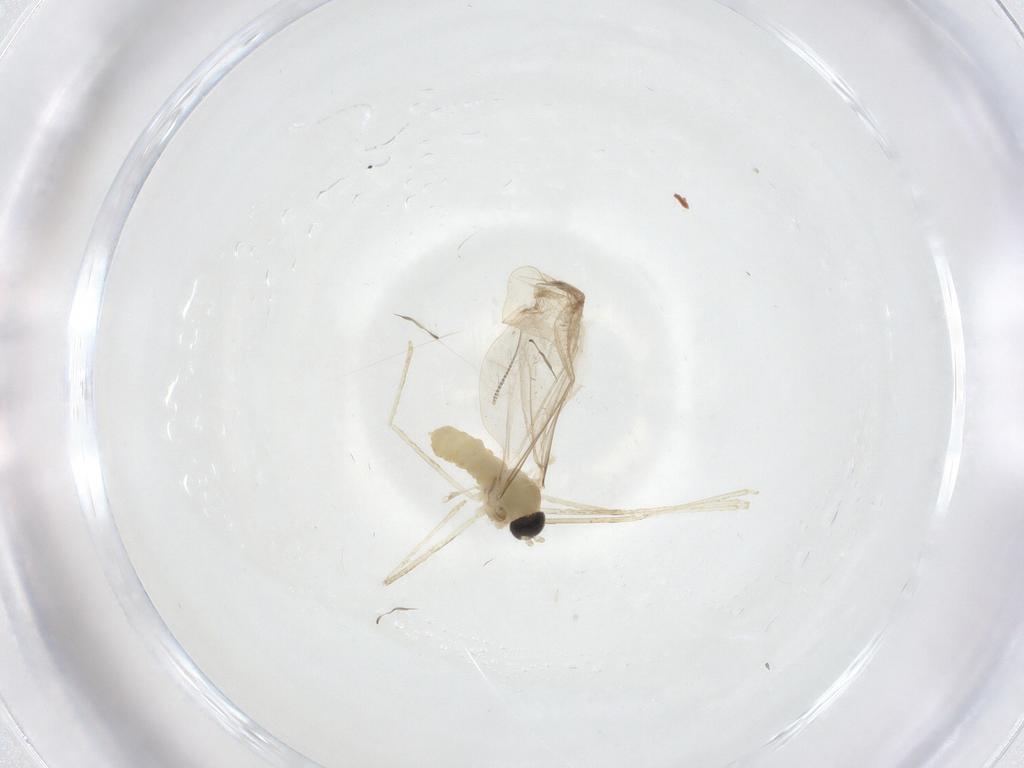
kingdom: Animalia
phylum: Arthropoda
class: Insecta
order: Diptera
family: Cecidomyiidae
